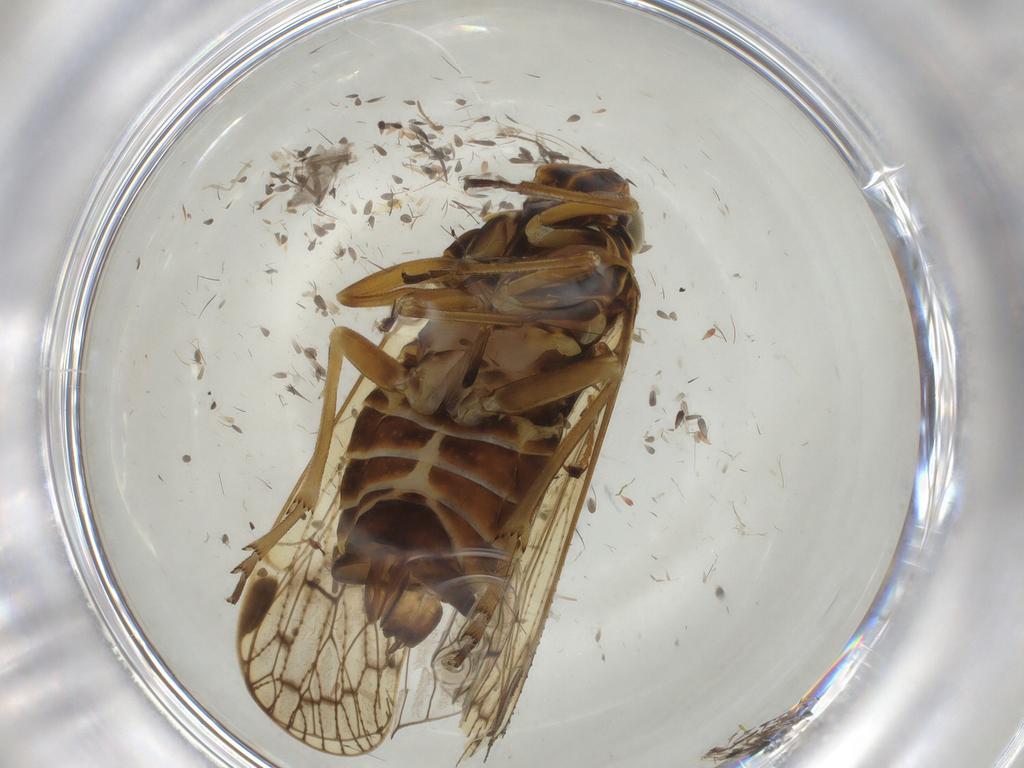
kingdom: Animalia
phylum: Arthropoda
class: Insecta
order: Hemiptera
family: Cixiidae
